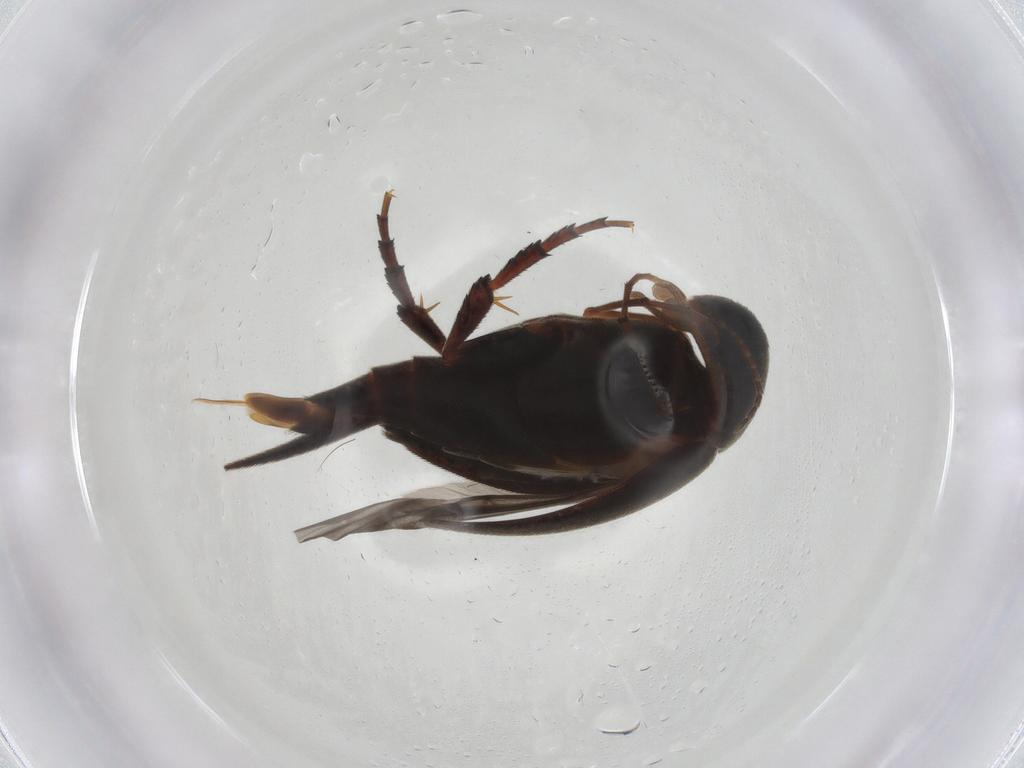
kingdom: Animalia
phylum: Arthropoda
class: Insecta
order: Coleoptera
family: Mordellidae
